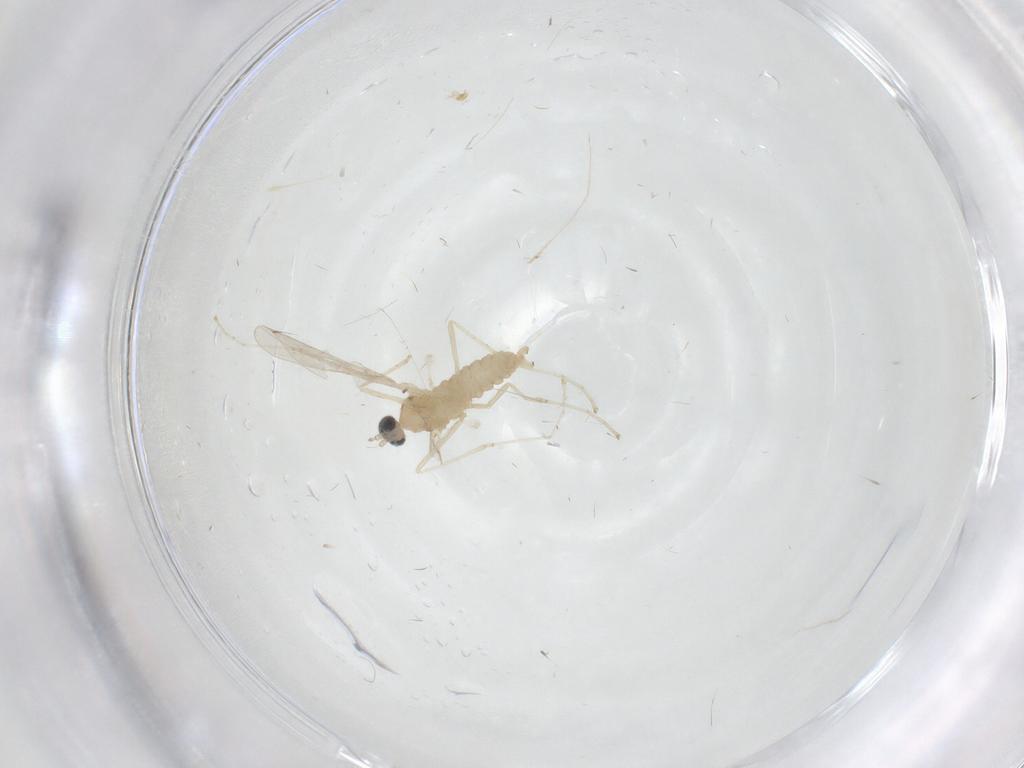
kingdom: Animalia
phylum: Arthropoda
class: Insecta
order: Diptera
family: Cecidomyiidae
